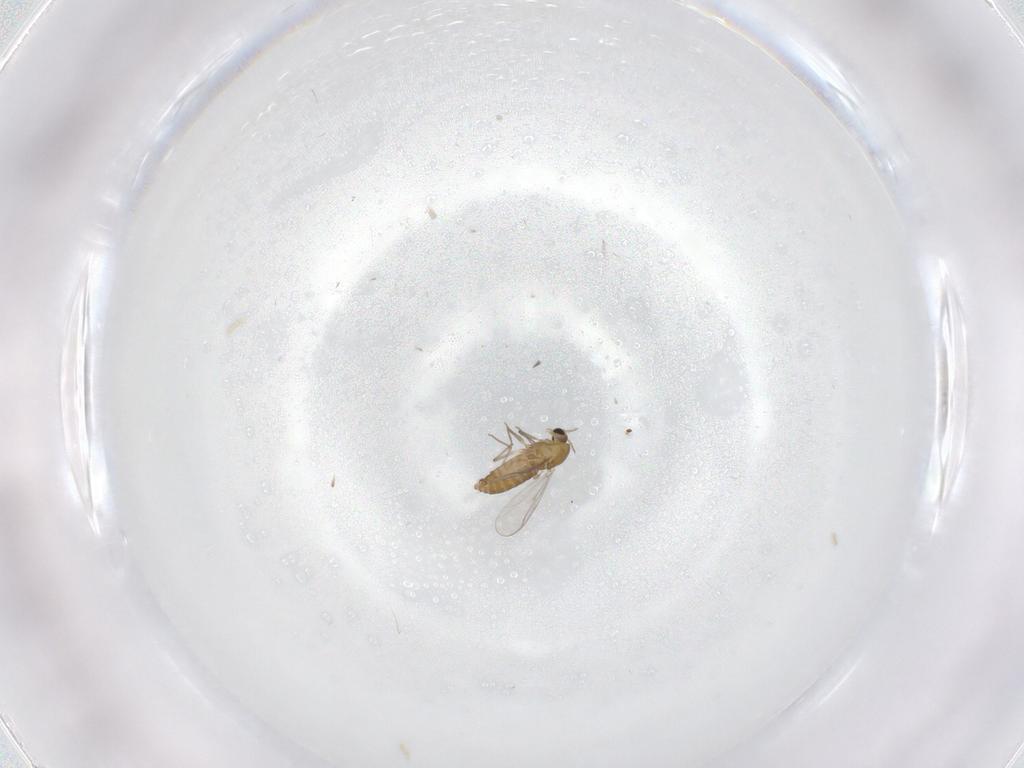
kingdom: Animalia
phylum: Arthropoda
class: Insecta
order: Diptera
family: Chironomidae
